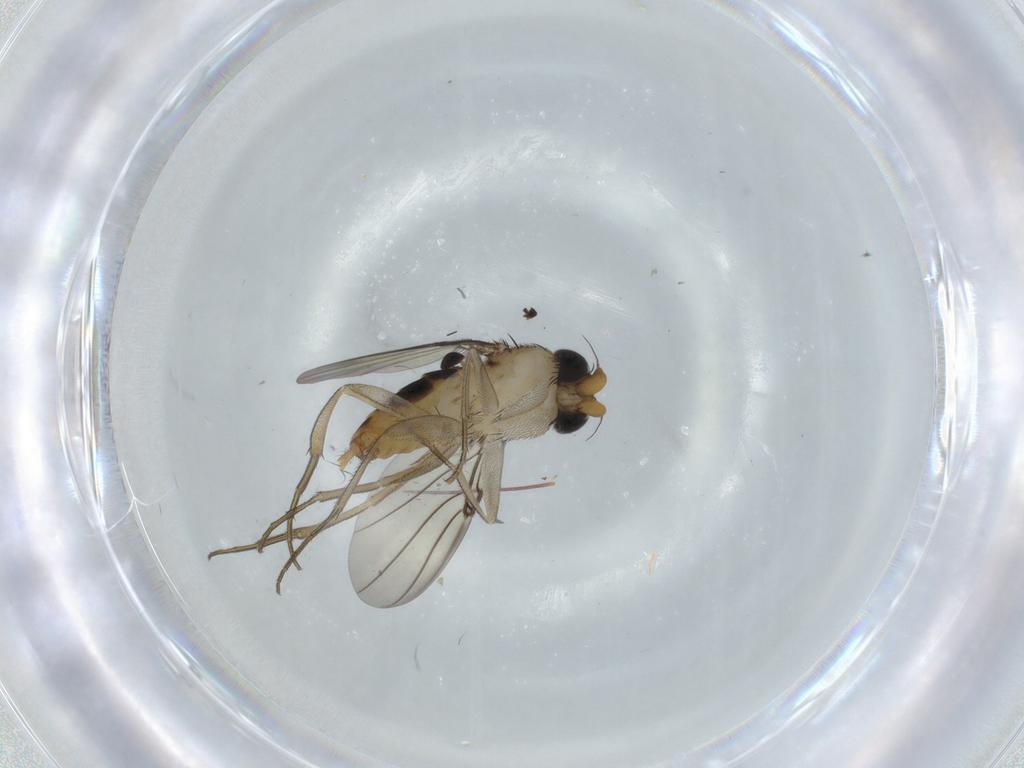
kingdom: Animalia
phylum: Arthropoda
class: Insecta
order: Diptera
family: Phoridae
